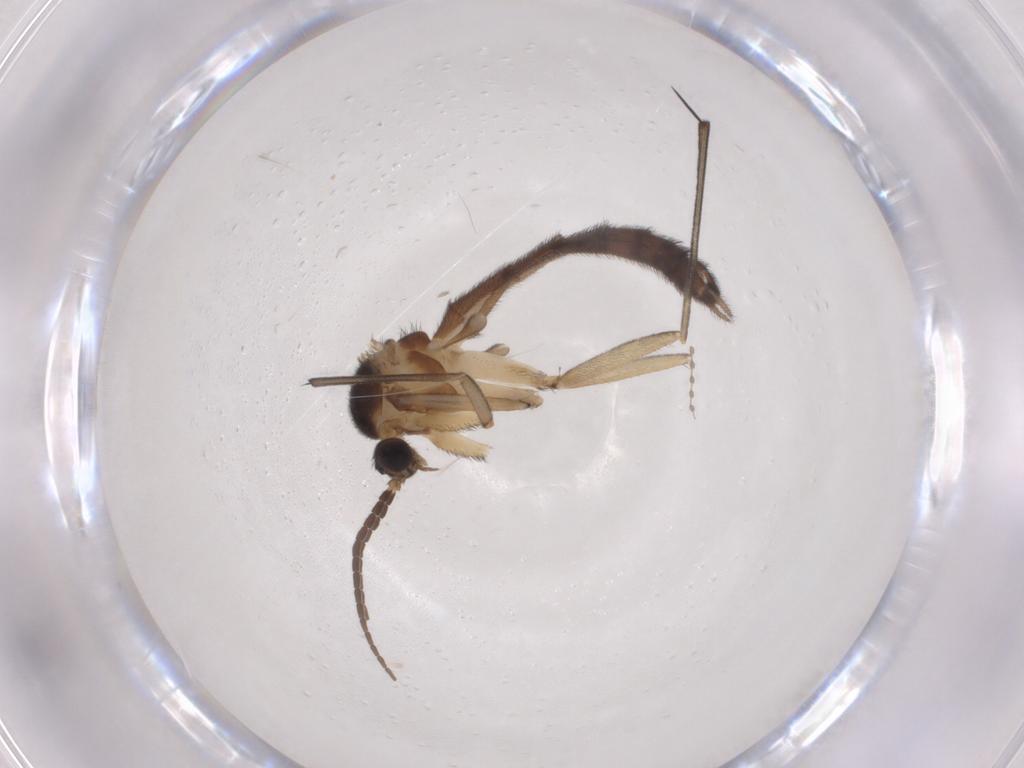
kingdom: Animalia
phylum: Arthropoda
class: Insecta
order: Diptera
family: Keroplatidae
